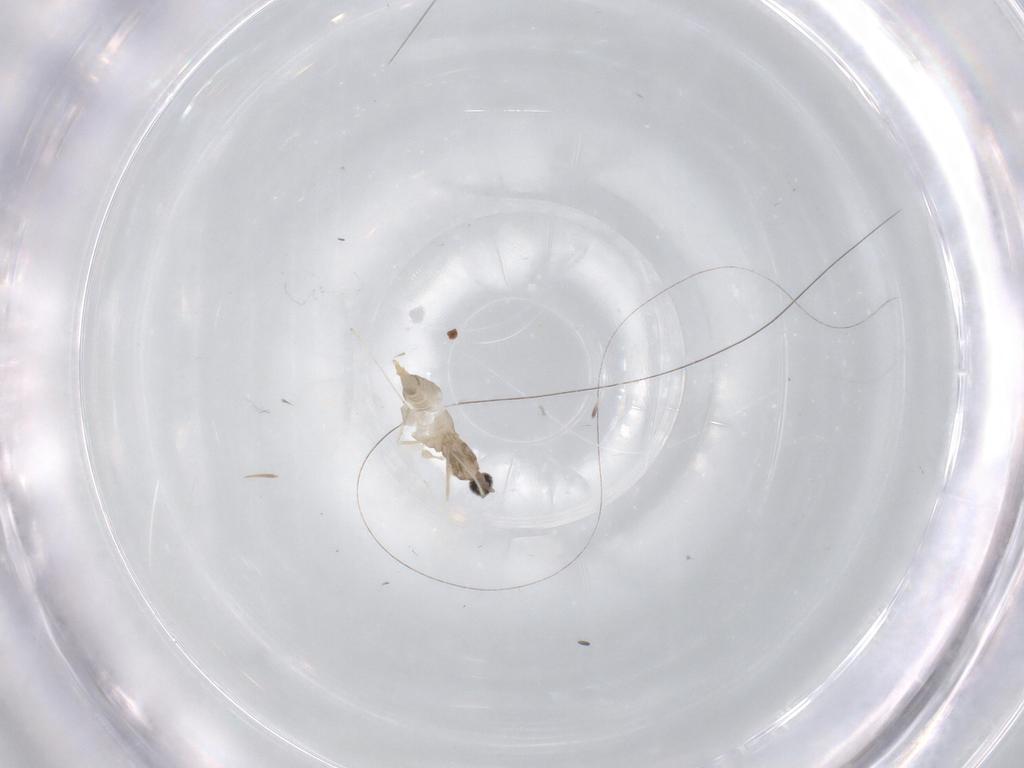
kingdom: Animalia
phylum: Arthropoda
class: Insecta
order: Diptera
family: Cecidomyiidae
